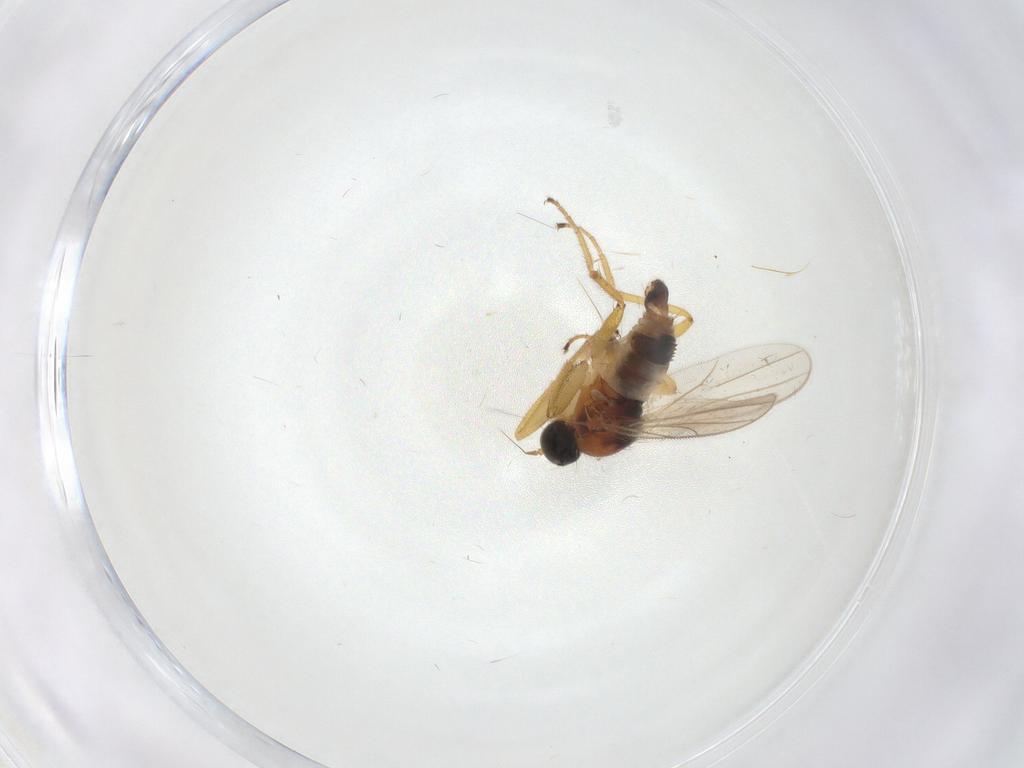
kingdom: Animalia
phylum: Arthropoda
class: Insecta
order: Diptera
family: Hybotidae
